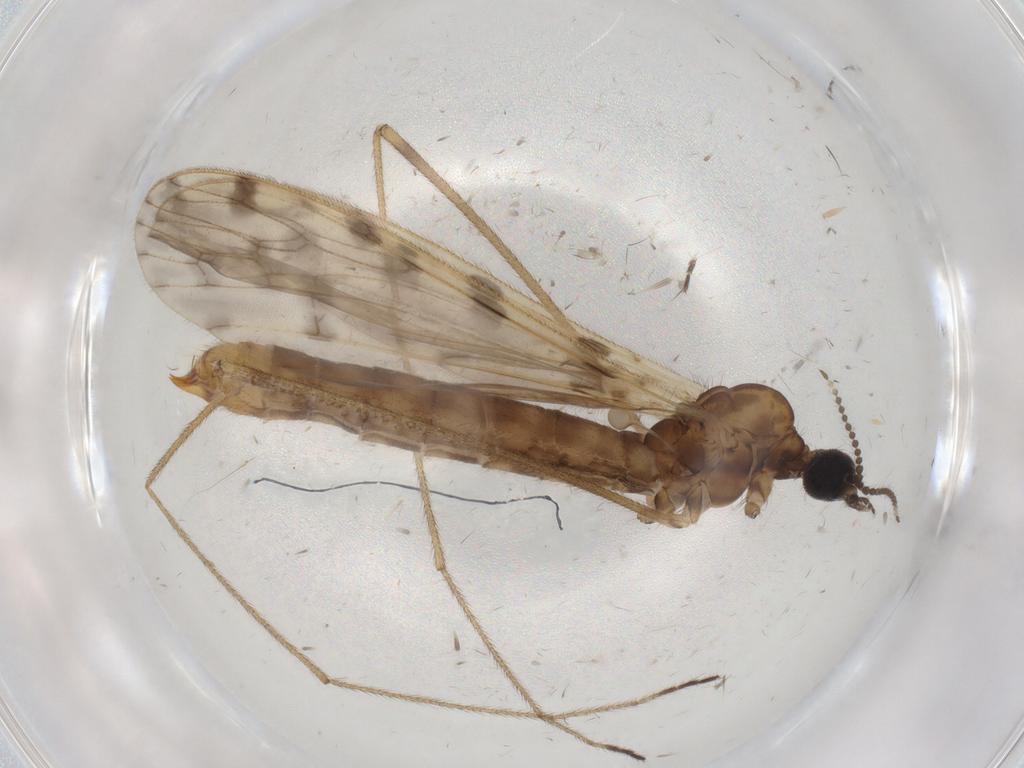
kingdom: Animalia
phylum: Arthropoda
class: Insecta
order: Diptera
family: Limoniidae
